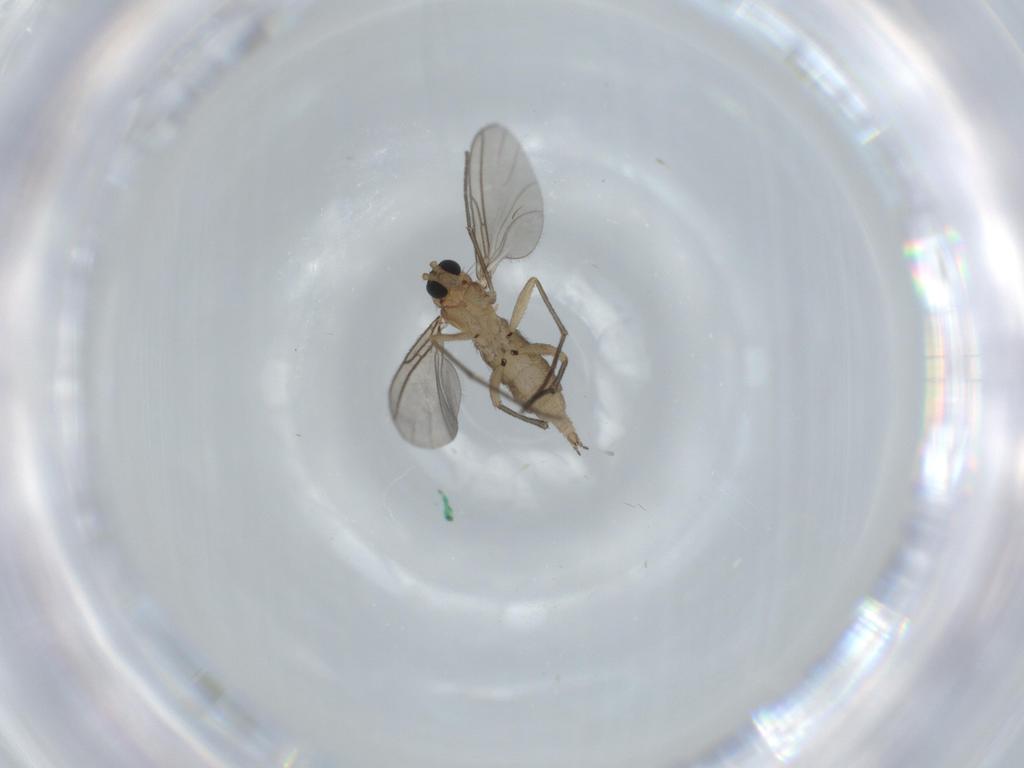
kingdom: Animalia
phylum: Arthropoda
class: Insecta
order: Diptera
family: Sciaridae
